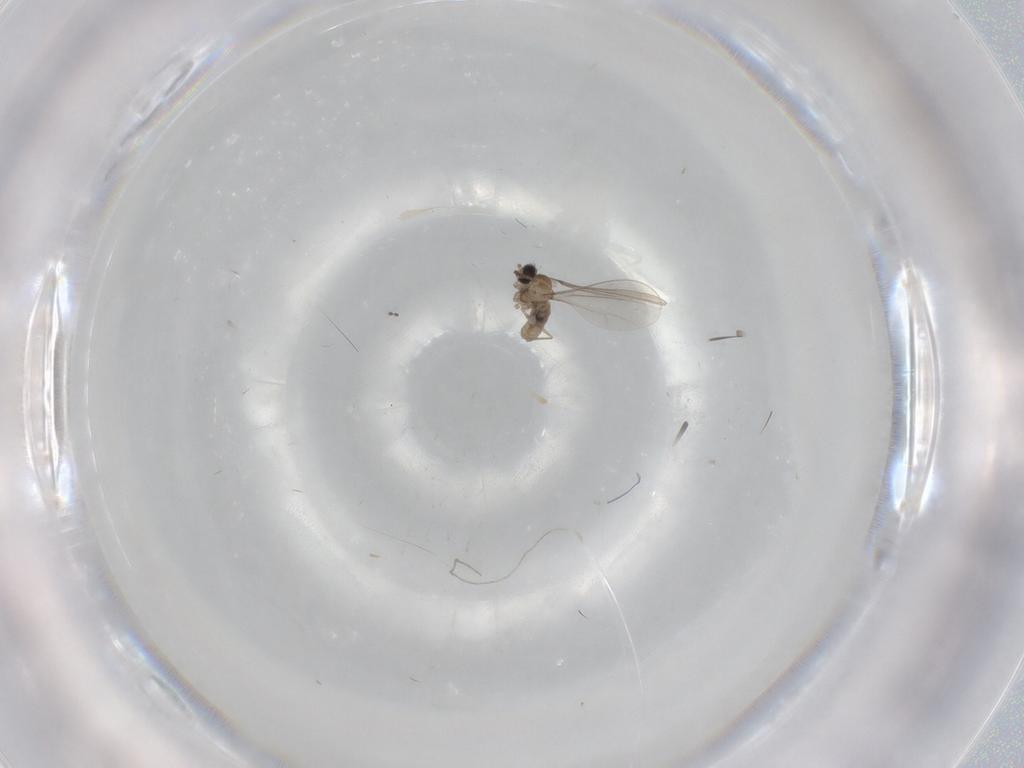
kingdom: Animalia
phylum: Arthropoda
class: Insecta
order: Diptera
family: Cecidomyiidae
